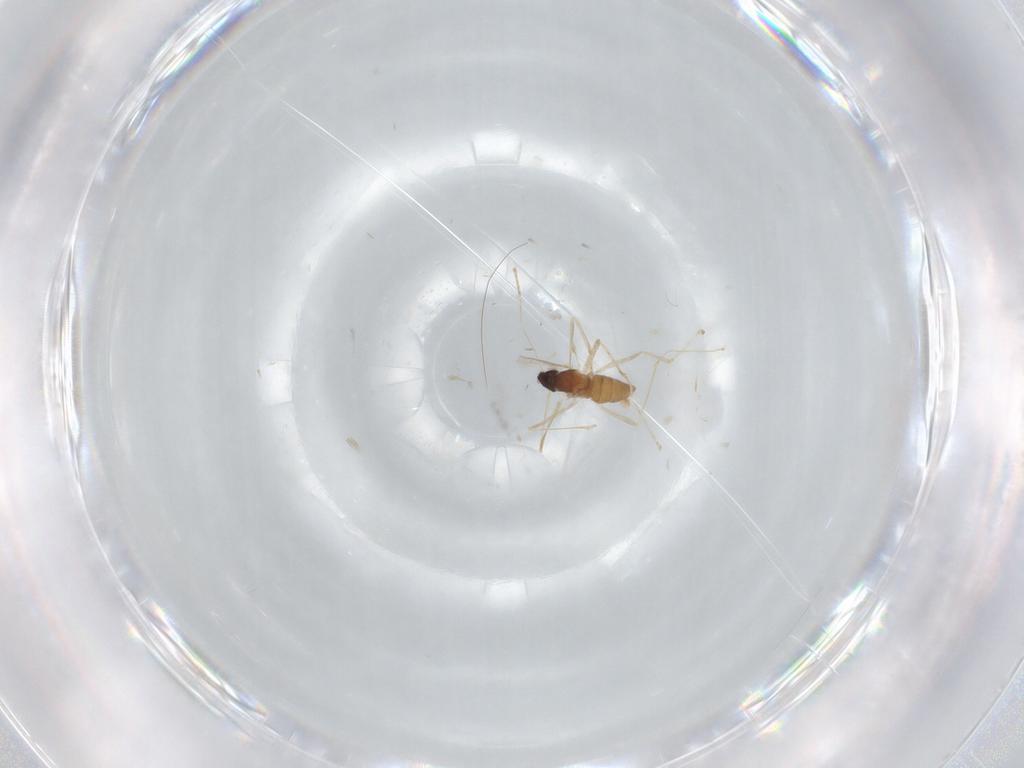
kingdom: Animalia
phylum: Arthropoda
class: Insecta
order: Diptera
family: Cecidomyiidae
